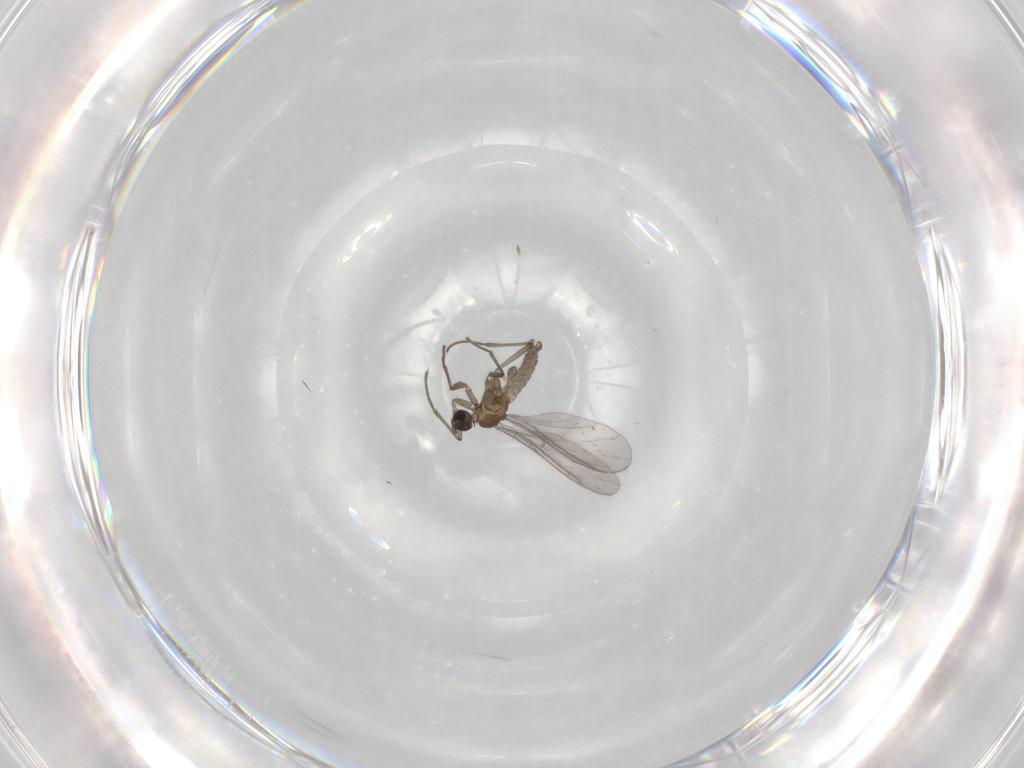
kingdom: Animalia
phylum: Arthropoda
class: Insecta
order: Diptera
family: Sciaridae
